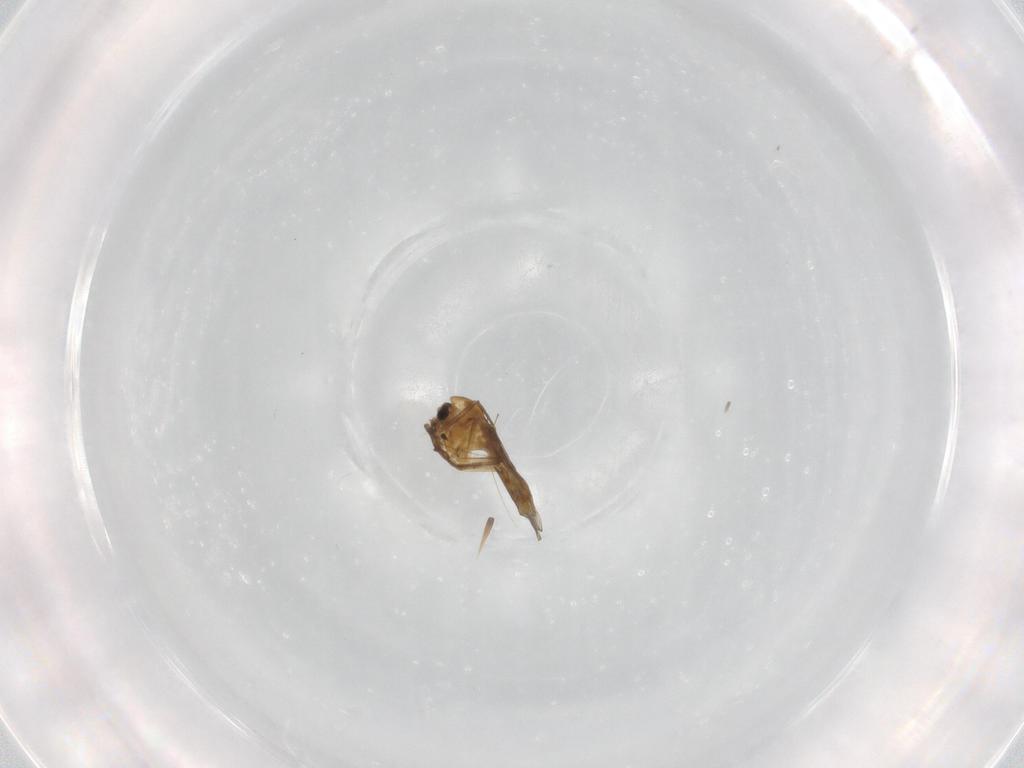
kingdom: Animalia
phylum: Arthropoda
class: Insecta
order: Diptera
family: Chironomidae
